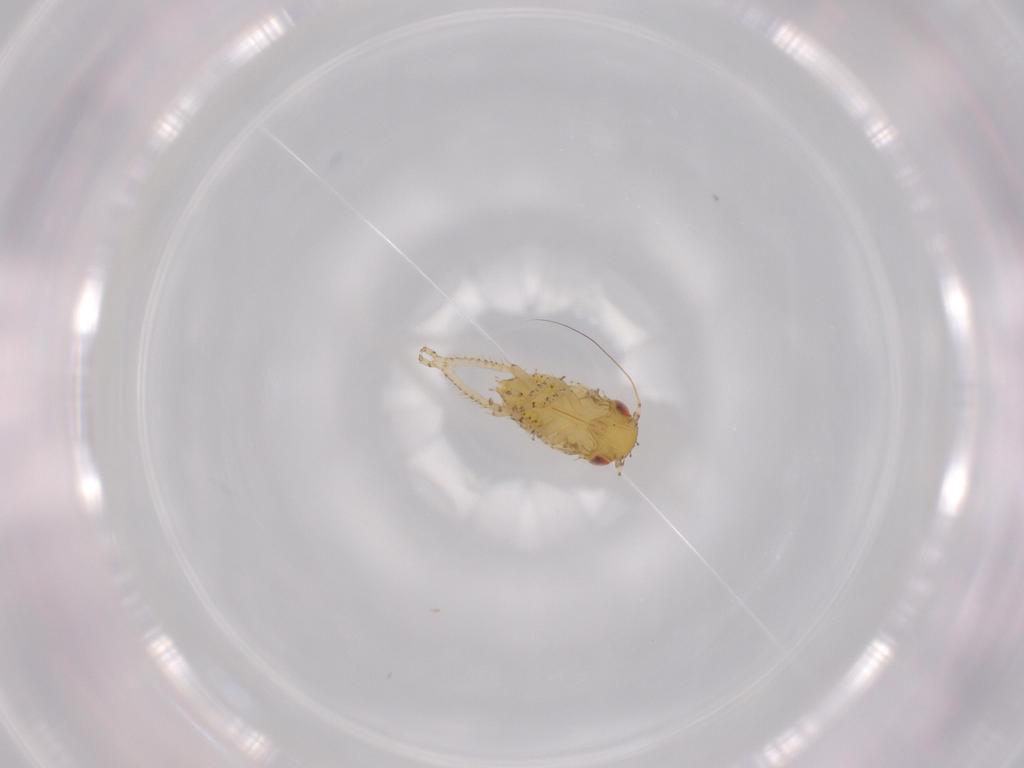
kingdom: Animalia
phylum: Arthropoda
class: Insecta
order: Hemiptera
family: Cicadellidae
